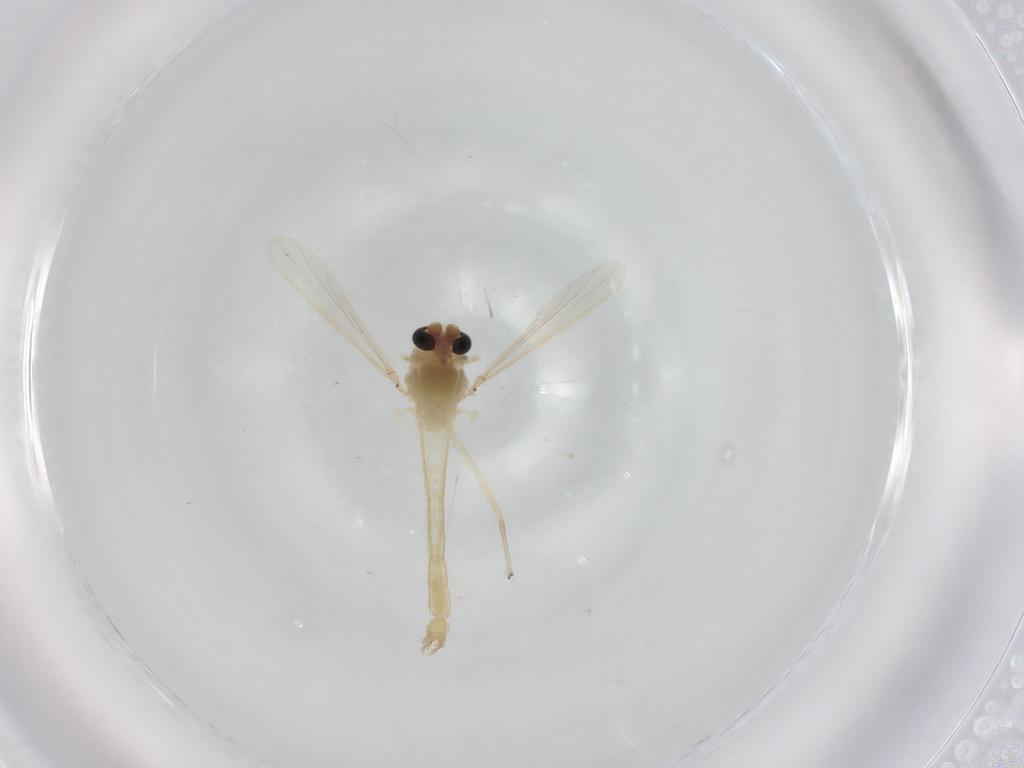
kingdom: Animalia
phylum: Arthropoda
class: Insecta
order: Diptera
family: Chironomidae
